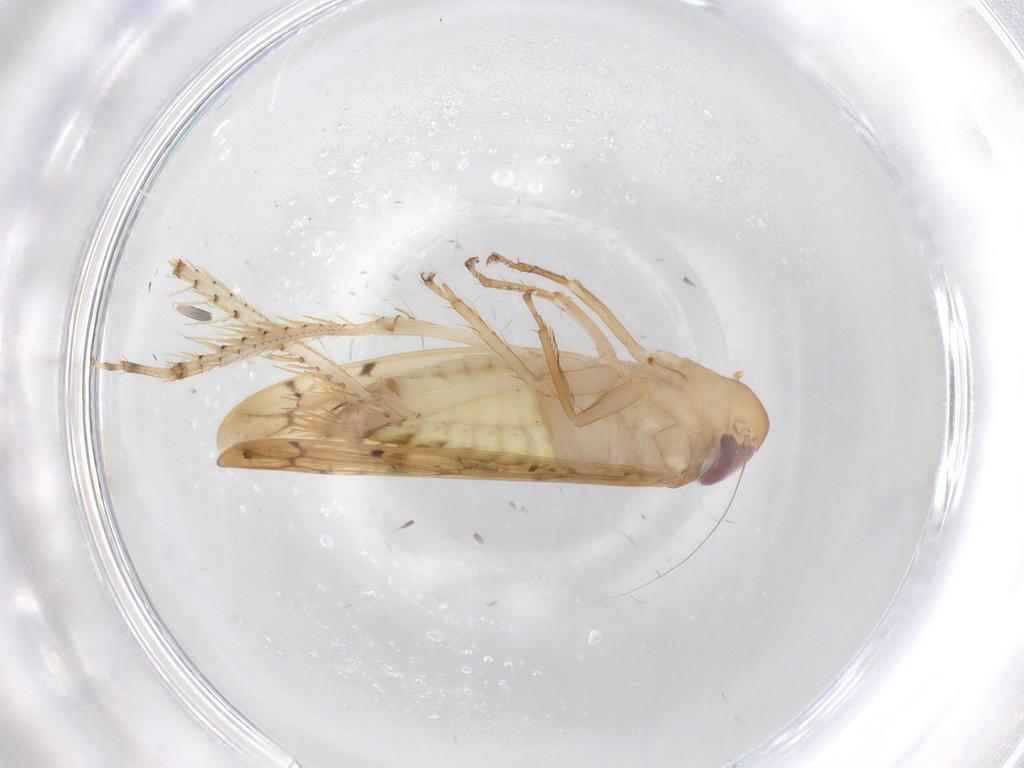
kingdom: Animalia
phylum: Arthropoda
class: Insecta
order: Hemiptera
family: Cicadellidae
